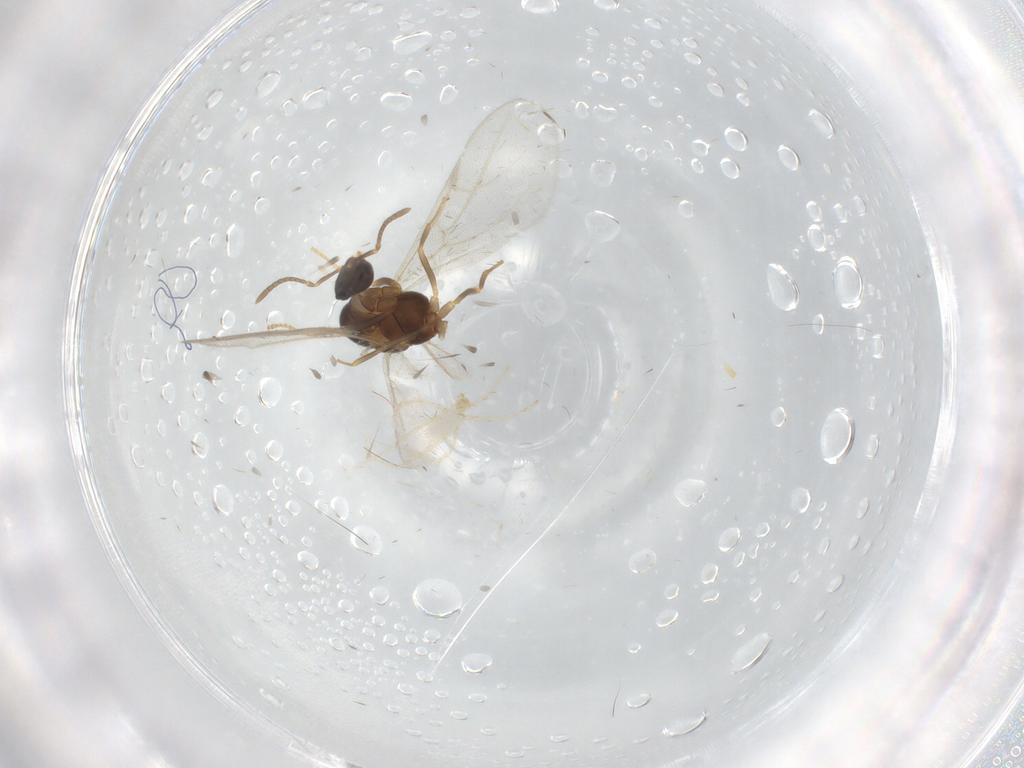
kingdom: Animalia
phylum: Arthropoda
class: Insecta
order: Hymenoptera
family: Formicidae
